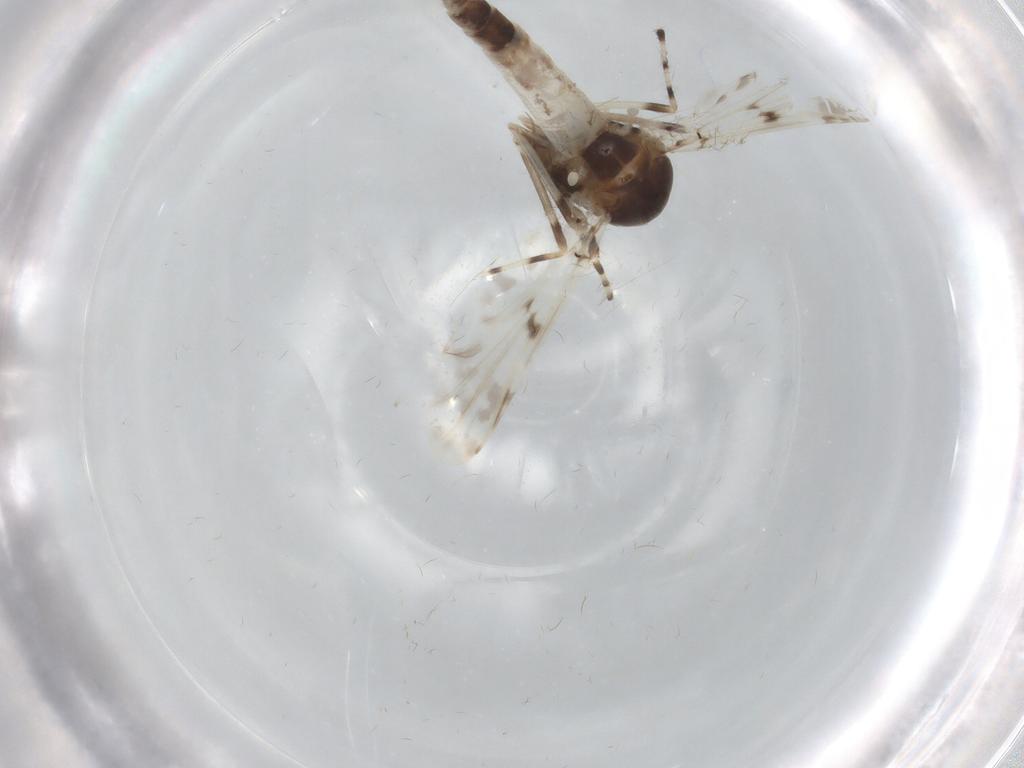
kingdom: Animalia
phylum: Arthropoda
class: Insecta
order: Diptera
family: Chironomidae
